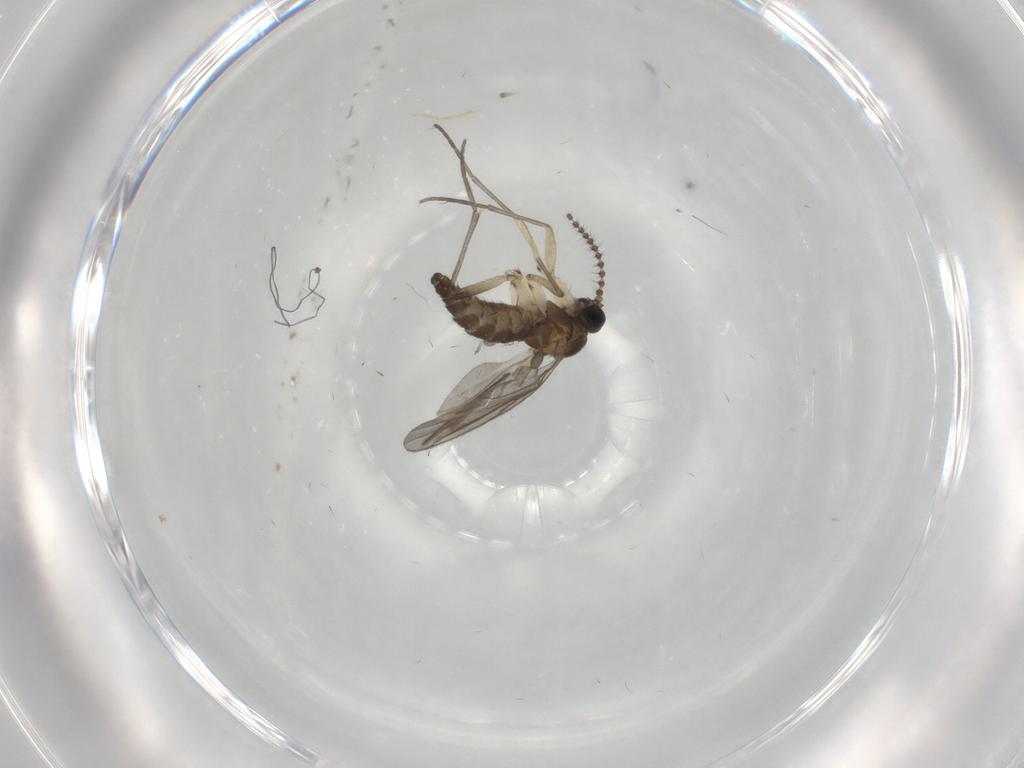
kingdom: Animalia
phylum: Arthropoda
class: Insecta
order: Diptera
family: Sciaridae
